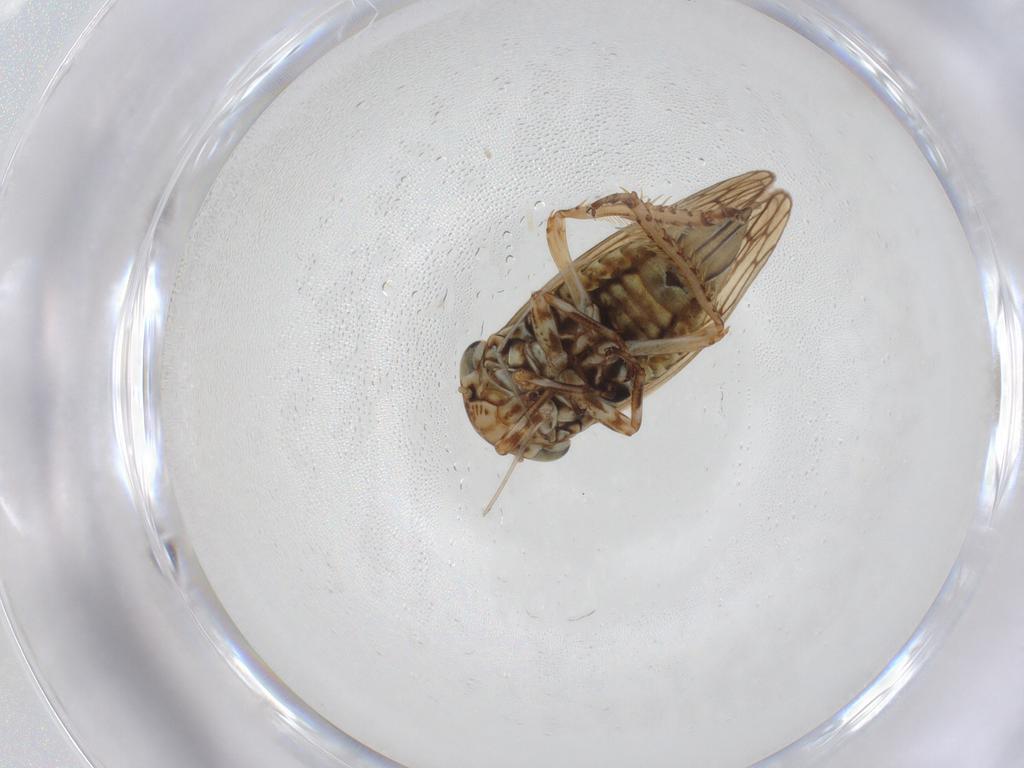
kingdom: Animalia
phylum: Arthropoda
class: Insecta
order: Hemiptera
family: Cicadellidae
